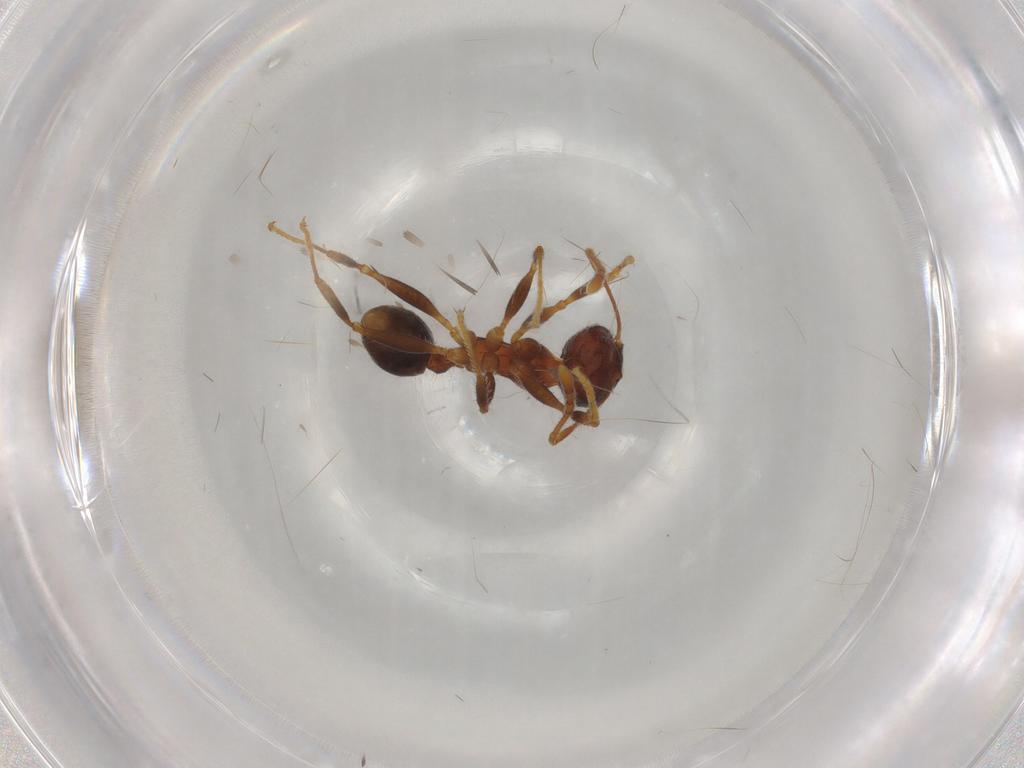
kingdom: Animalia
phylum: Arthropoda
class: Insecta
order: Hymenoptera
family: Formicidae
